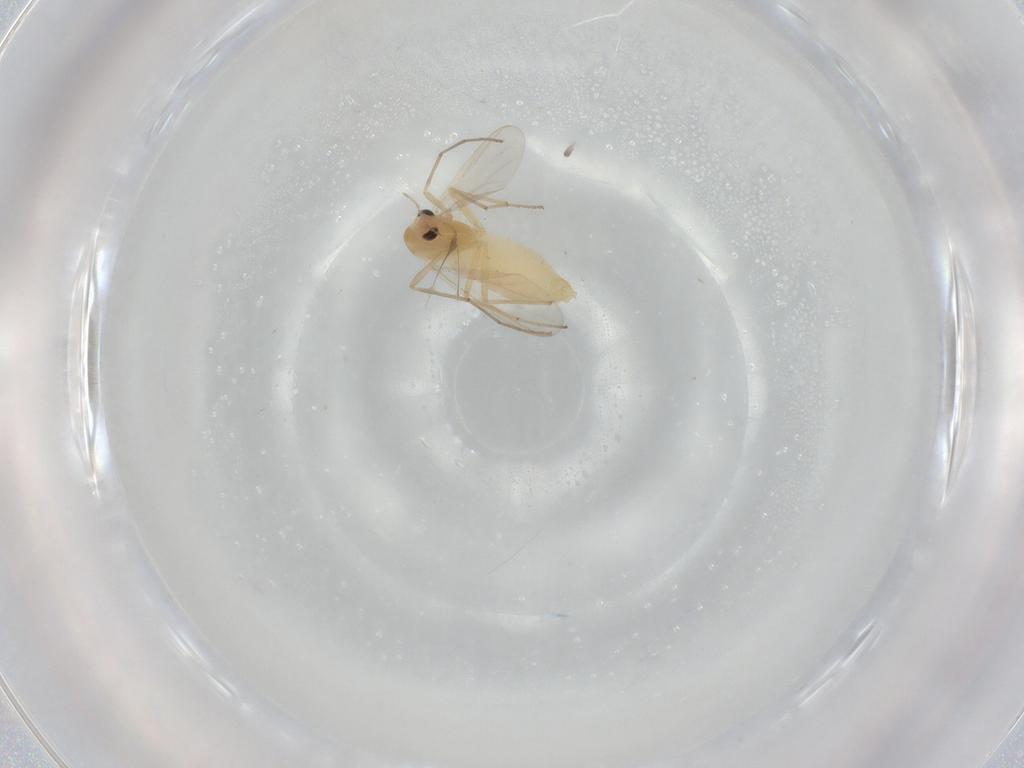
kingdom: Animalia
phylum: Arthropoda
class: Insecta
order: Diptera
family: Chironomidae
